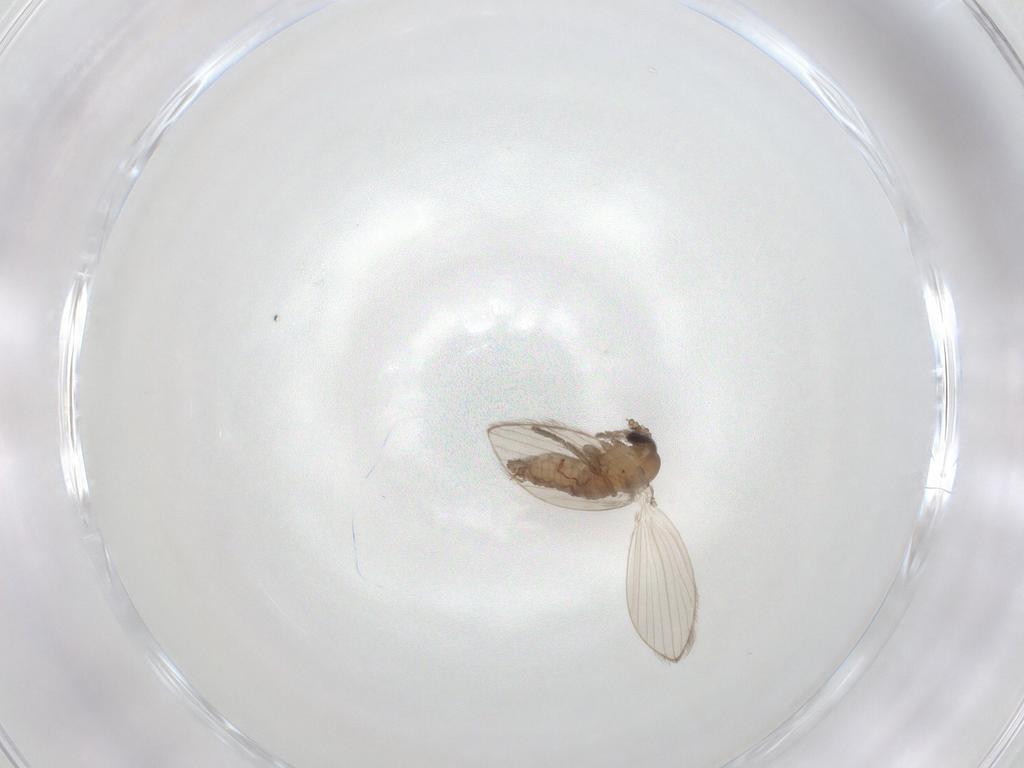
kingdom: Animalia
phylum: Arthropoda
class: Insecta
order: Diptera
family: Psychodidae
